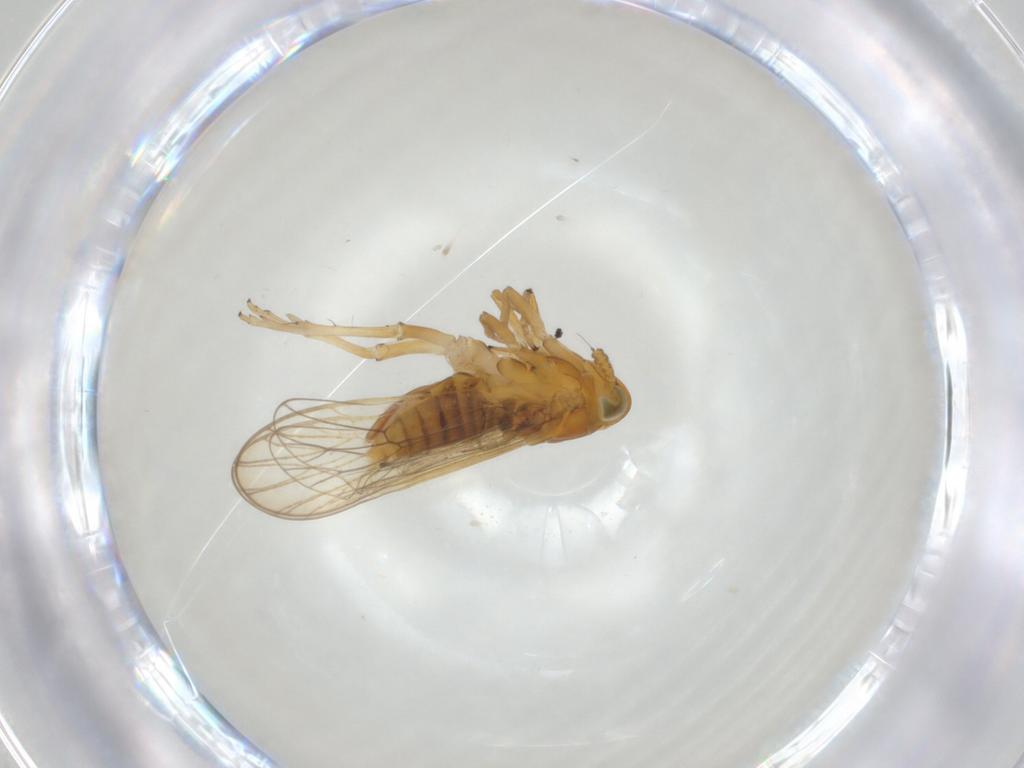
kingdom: Animalia
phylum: Arthropoda
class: Insecta
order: Hemiptera
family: Delphacidae
